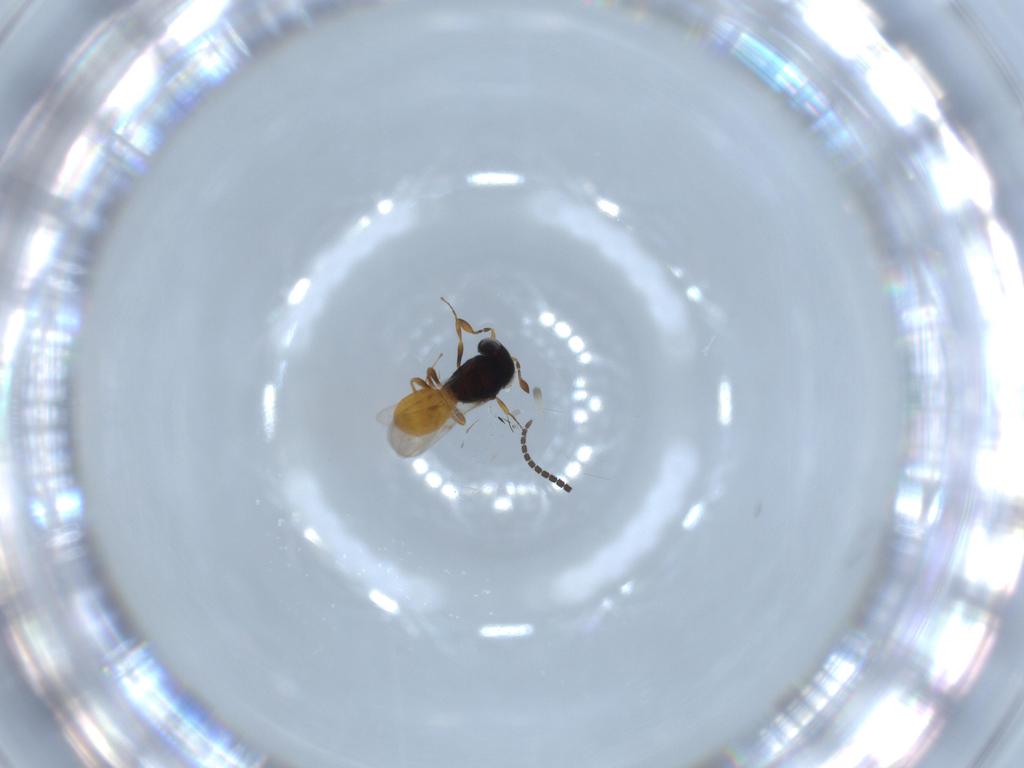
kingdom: Animalia
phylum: Arthropoda
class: Insecta
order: Hymenoptera
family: Scelionidae
